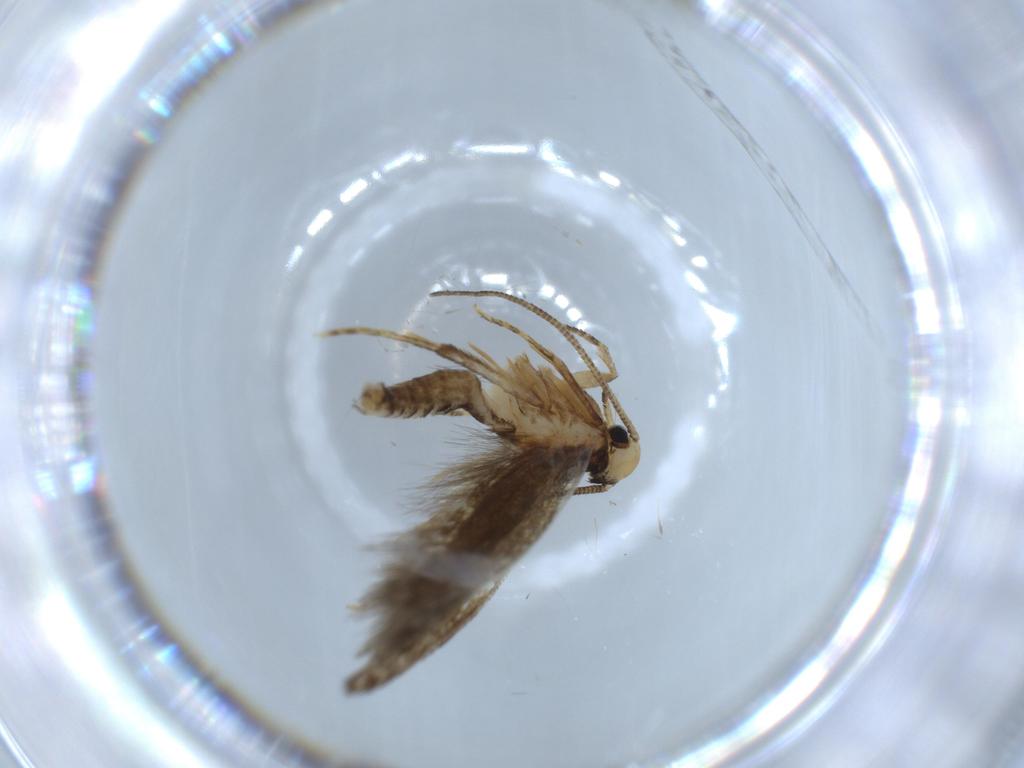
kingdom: Animalia
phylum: Arthropoda
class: Insecta
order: Lepidoptera
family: Tineidae
